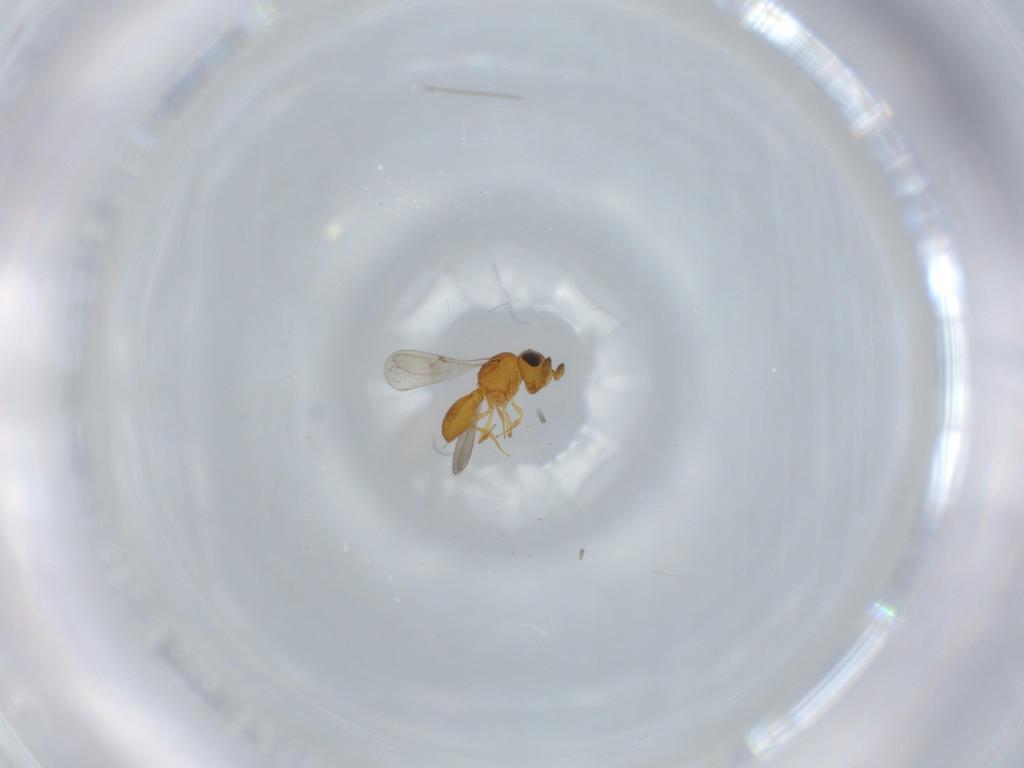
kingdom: Animalia
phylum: Arthropoda
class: Insecta
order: Hymenoptera
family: Scelionidae
